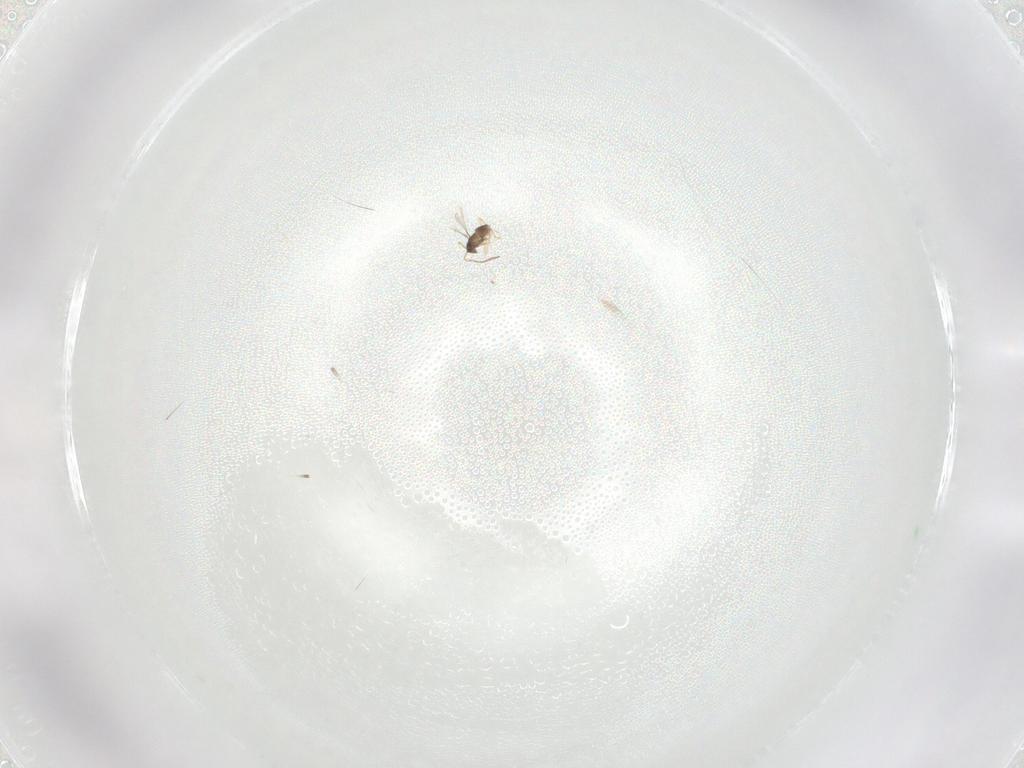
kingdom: Animalia
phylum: Arthropoda
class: Insecta
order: Hymenoptera
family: Mymaridae
